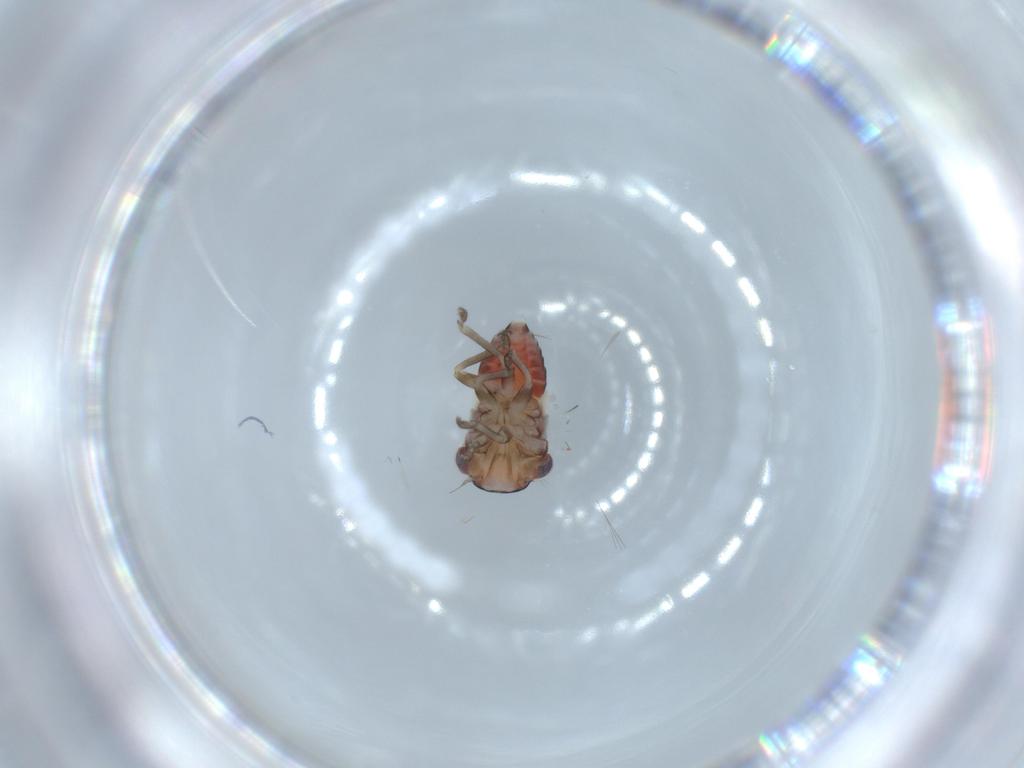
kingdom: Animalia
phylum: Arthropoda
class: Insecta
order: Hemiptera
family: Cicadellidae
